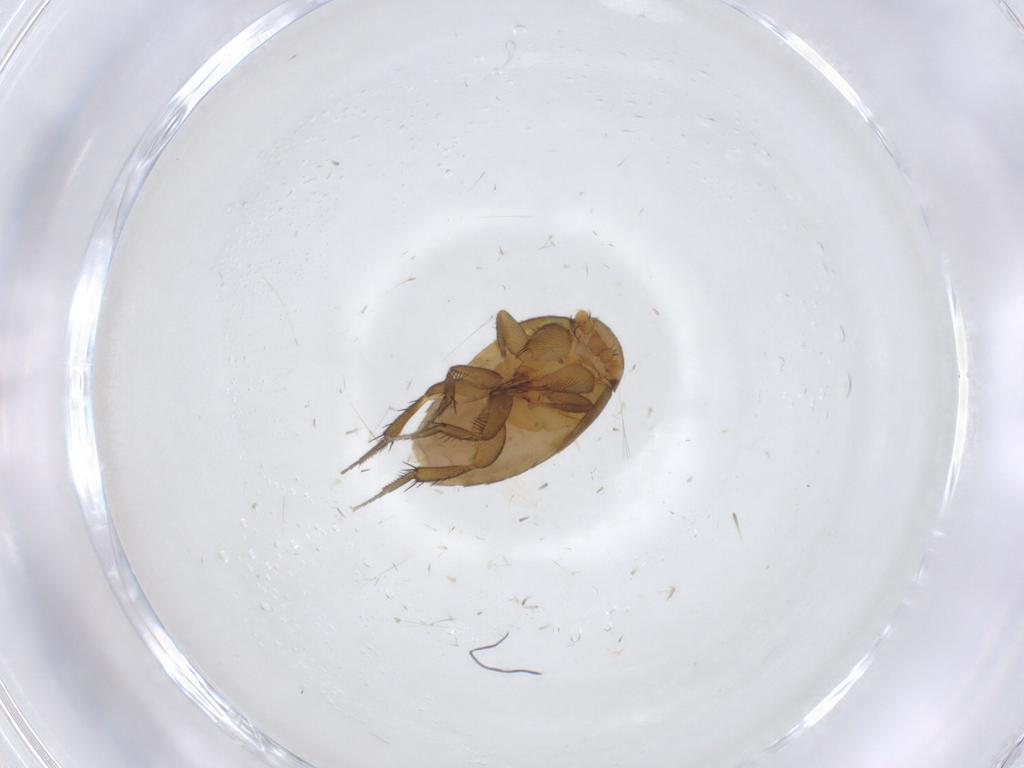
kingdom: Animalia
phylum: Arthropoda
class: Insecta
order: Diptera
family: Phoridae
